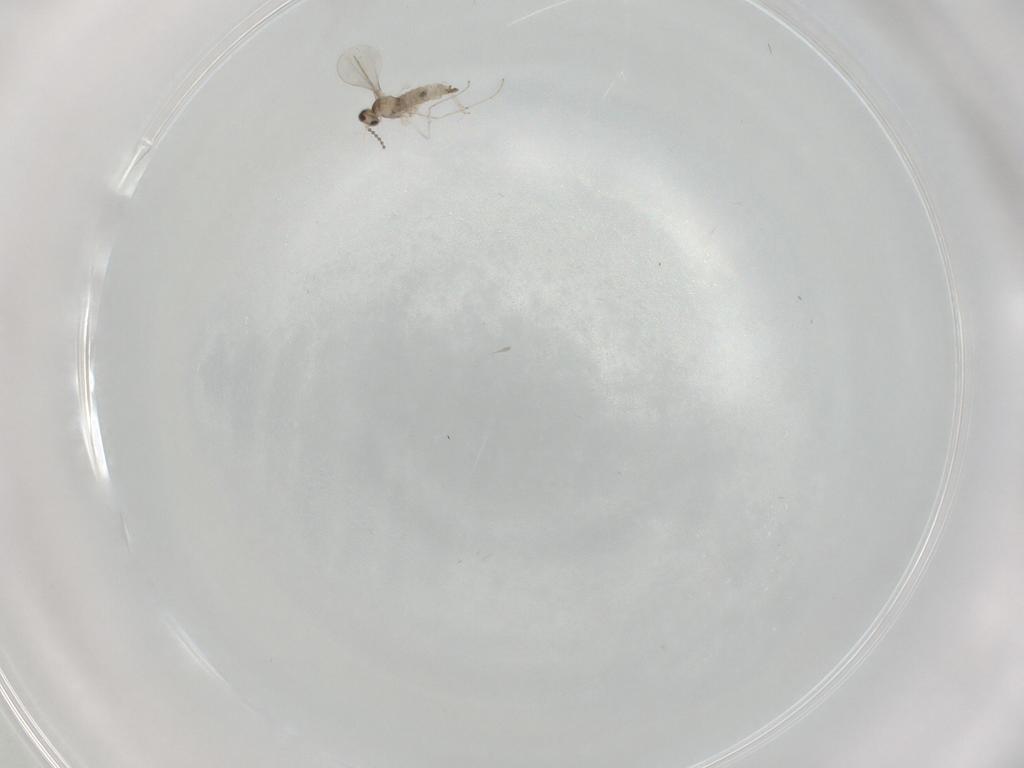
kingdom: Animalia
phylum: Arthropoda
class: Insecta
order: Diptera
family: Cecidomyiidae
